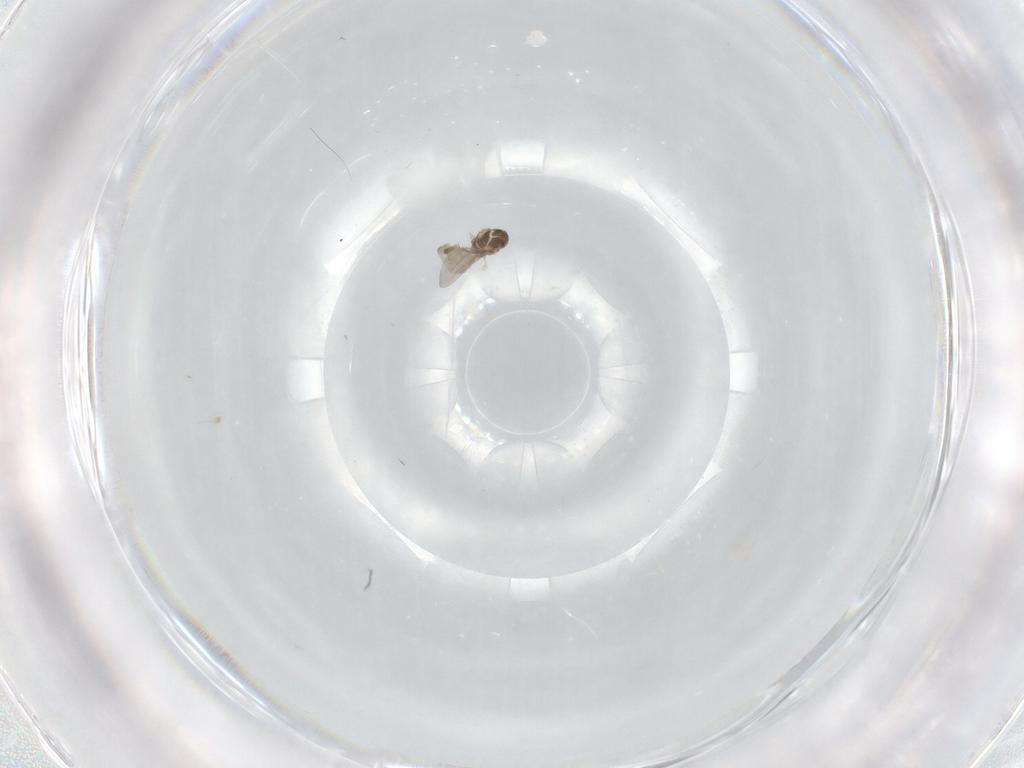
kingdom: Animalia
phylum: Arthropoda
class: Insecta
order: Diptera
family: Cecidomyiidae
